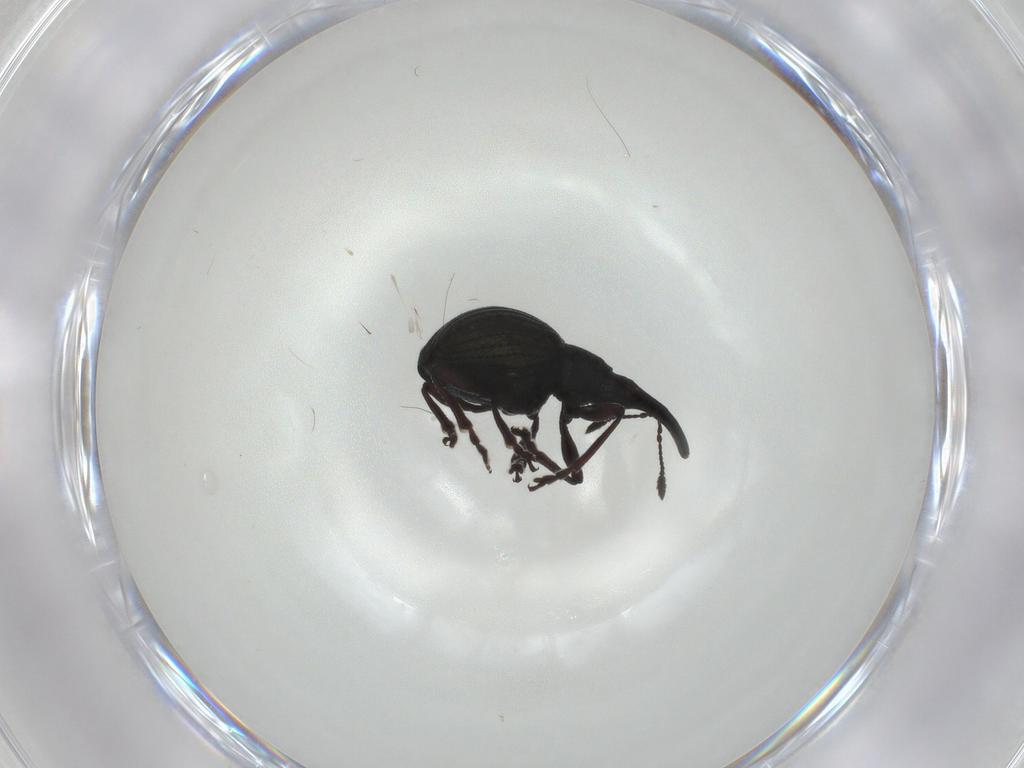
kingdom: Animalia
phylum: Arthropoda
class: Insecta
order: Coleoptera
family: Brentidae
